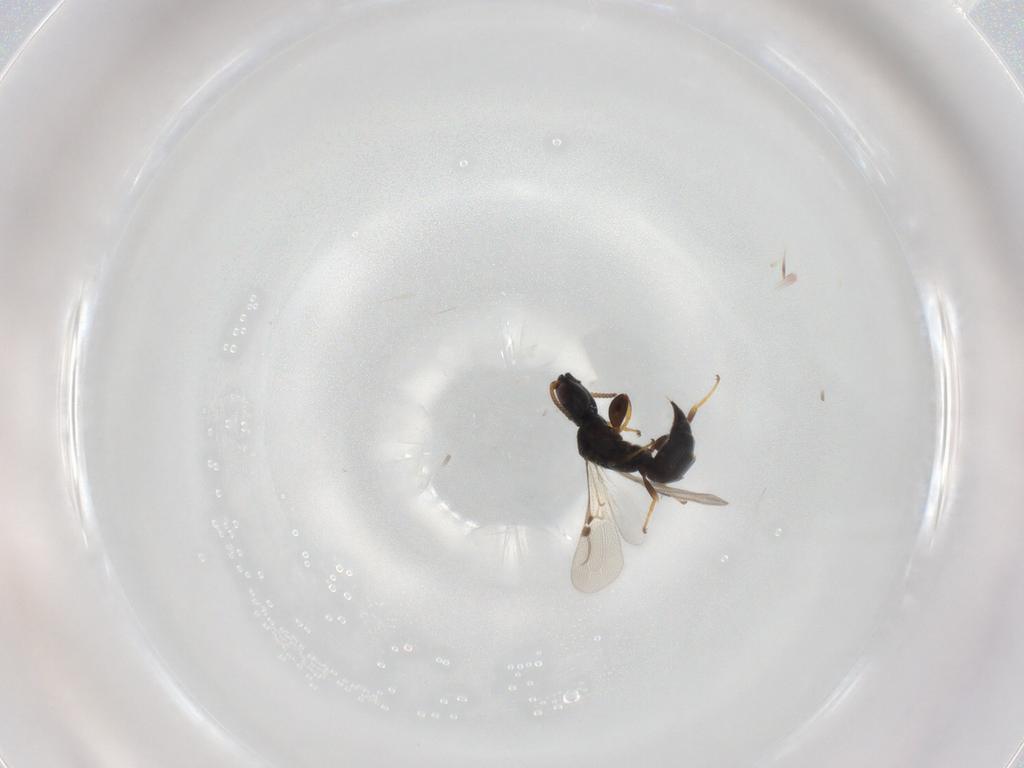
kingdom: Animalia
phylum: Arthropoda
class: Insecta
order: Hymenoptera
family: Bethylidae
